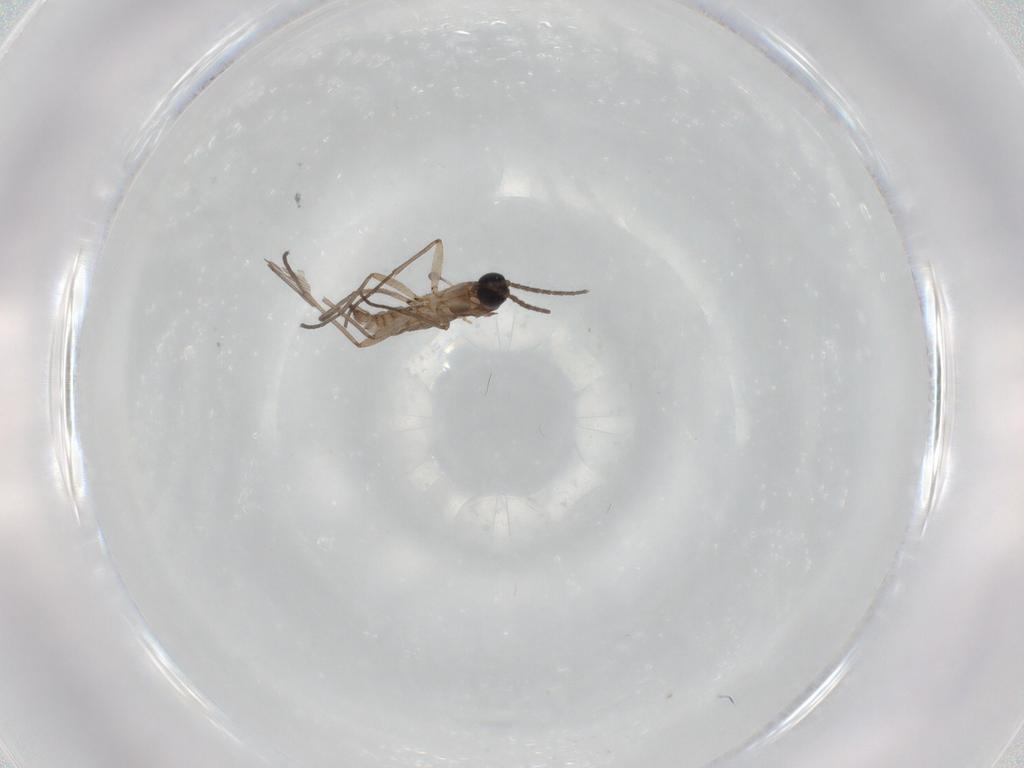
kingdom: Animalia
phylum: Arthropoda
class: Insecta
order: Diptera
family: Sciaridae
